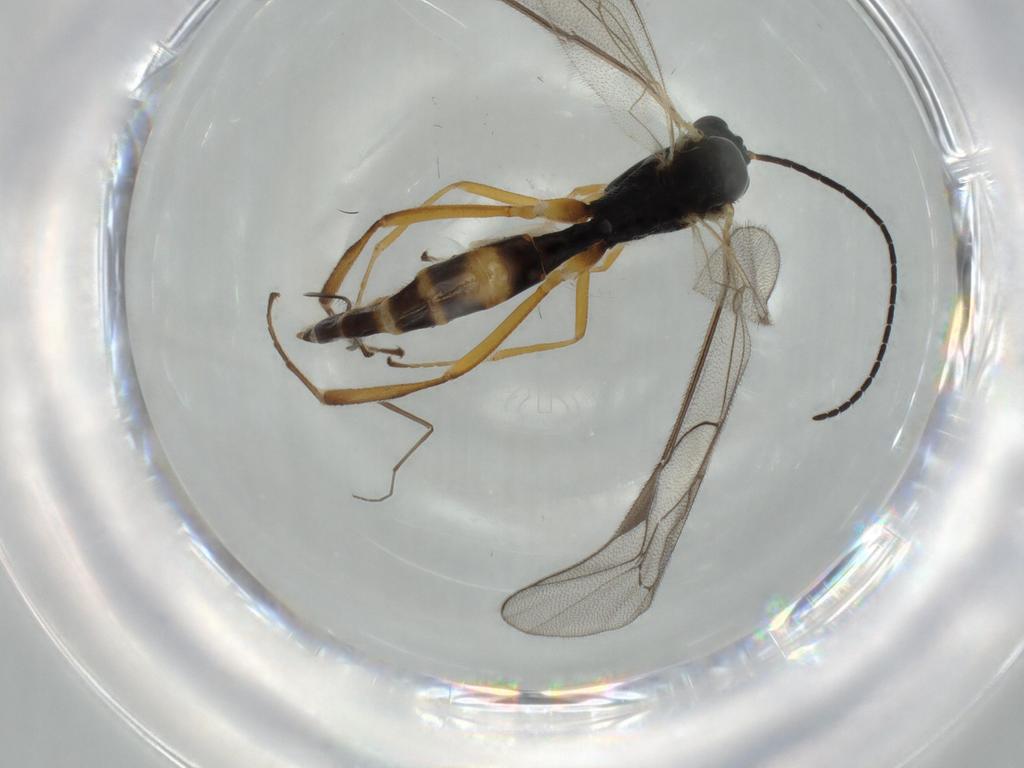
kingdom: Animalia
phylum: Arthropoda
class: Insecta
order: Hymenoptera
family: Ichneumonidae
